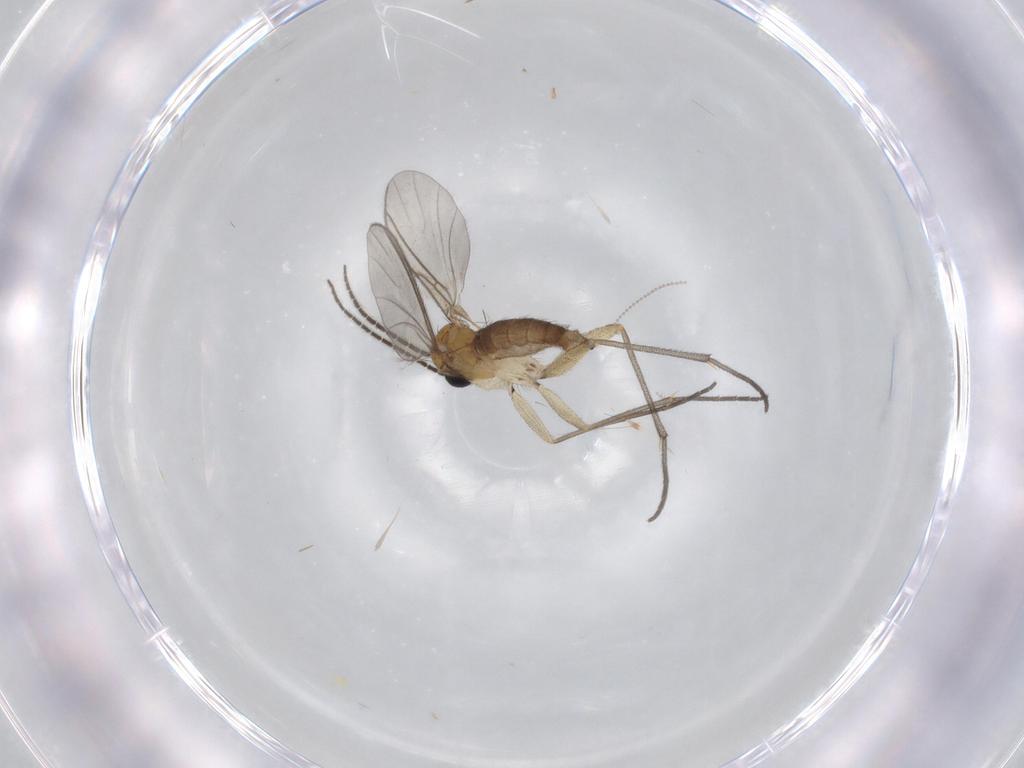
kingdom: Animalia
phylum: Arthropoda
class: Insecta
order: Diptera
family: Sciaridae
